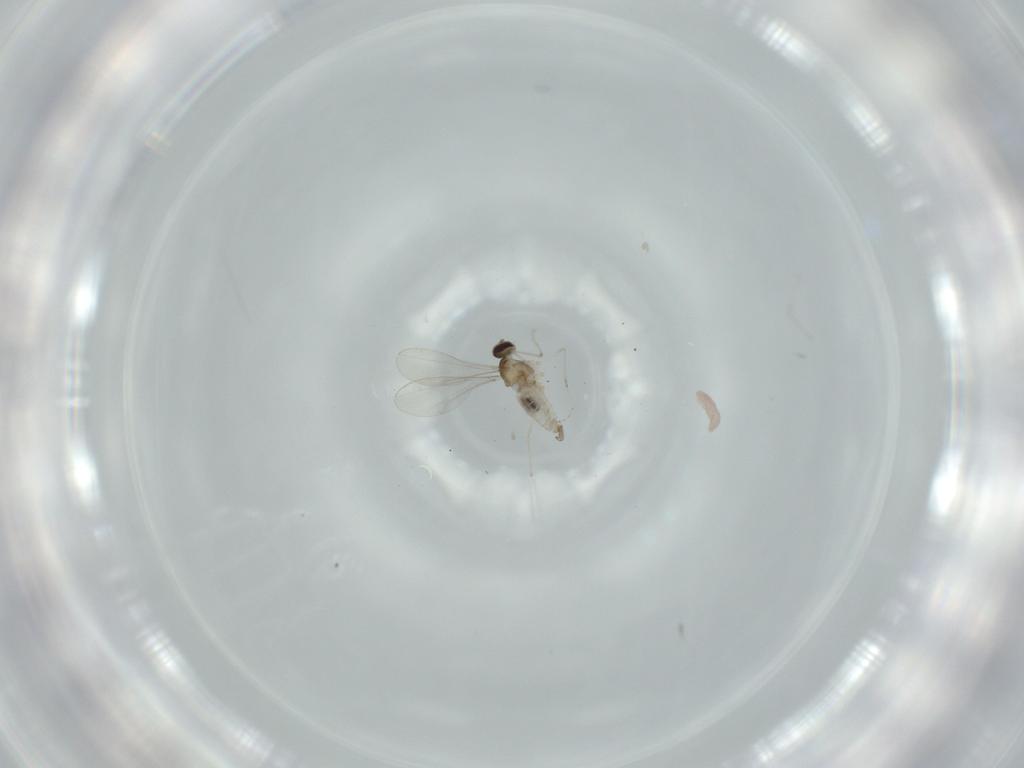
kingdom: Animalia
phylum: Arthropoda
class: Insecta
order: Diptera
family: Cecidomyiidae
